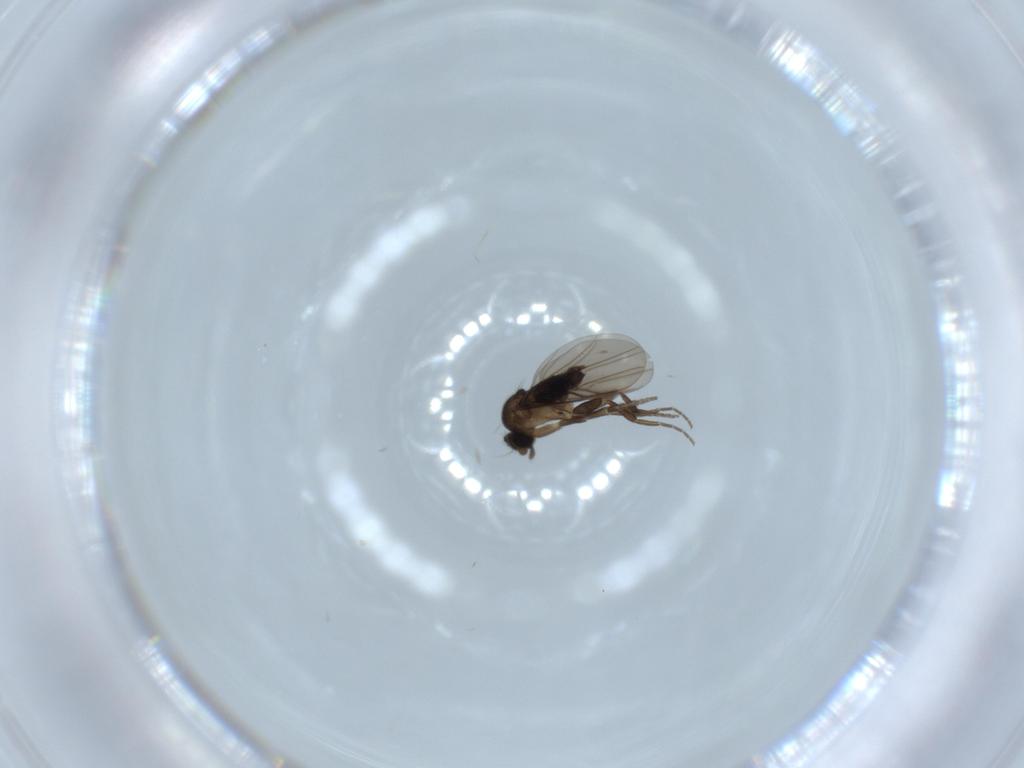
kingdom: Animalia
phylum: Arthropoda
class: Insecta
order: Diptera
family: Phoridae
